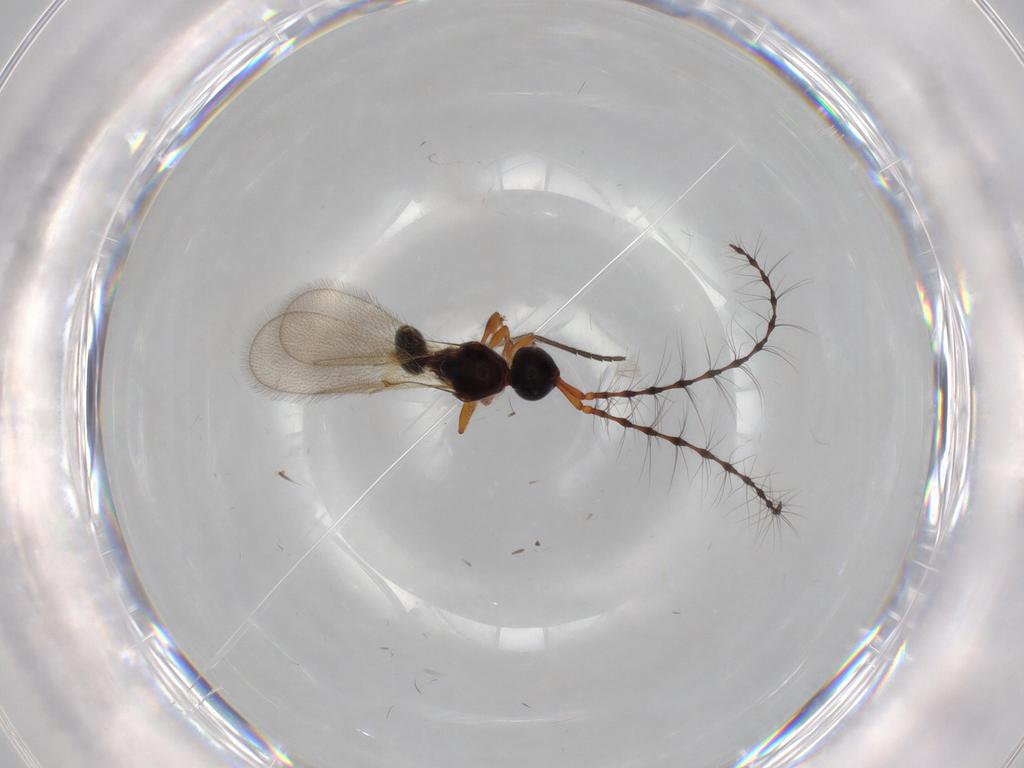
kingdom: Animalia
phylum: Arthropoda
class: Insecta
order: Hymenoptera
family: Diapriidae
